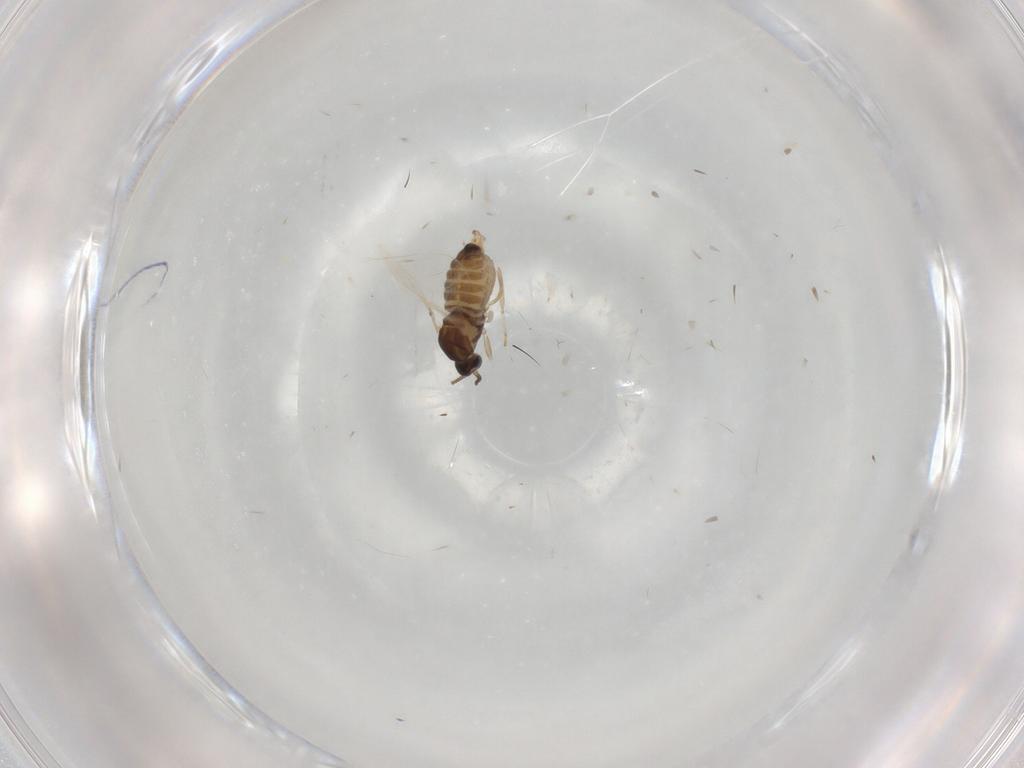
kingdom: Animalia
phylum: Arthropoda
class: Insecta
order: Diptera
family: Cecidomyiidae
